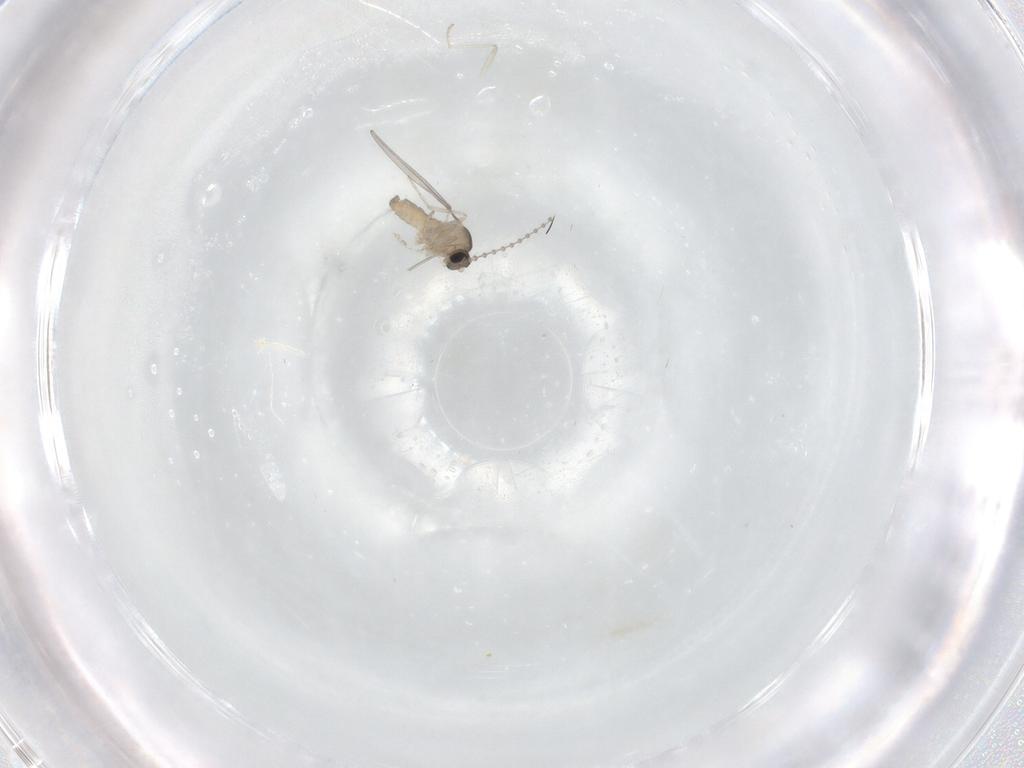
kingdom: Animalia
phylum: Arthropoda
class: Insecta
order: Diptera
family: Cecidomyiidae
